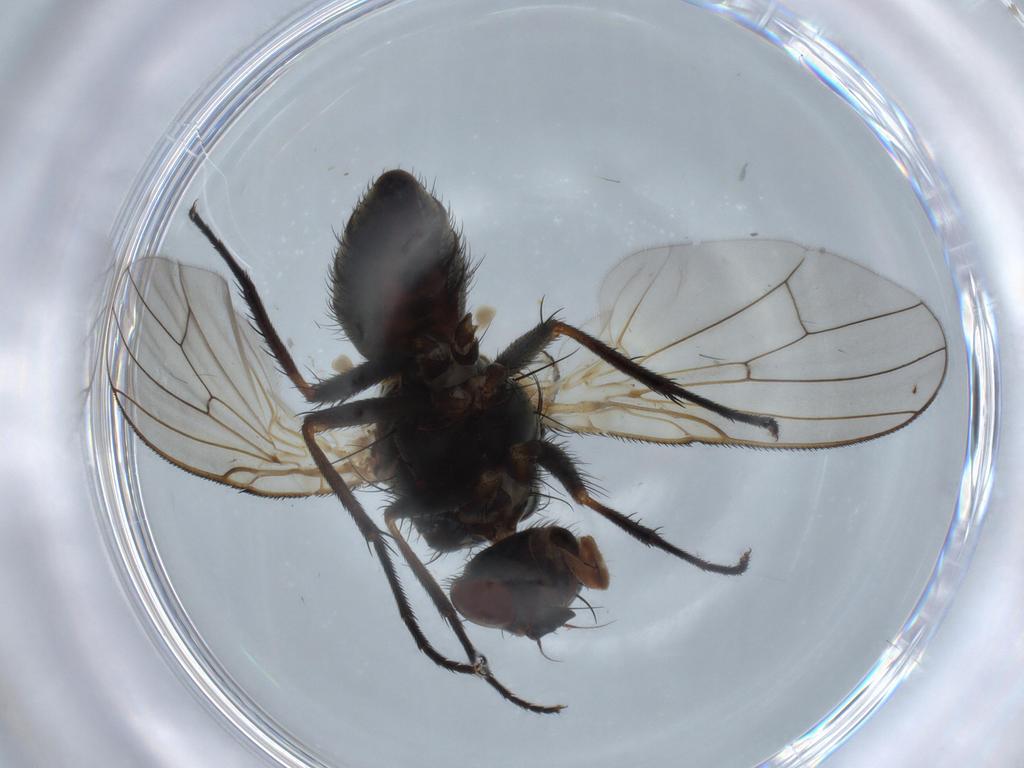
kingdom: Animalia
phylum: Arthropoda
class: Insecta
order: Diptera
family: Anthomyiidae
